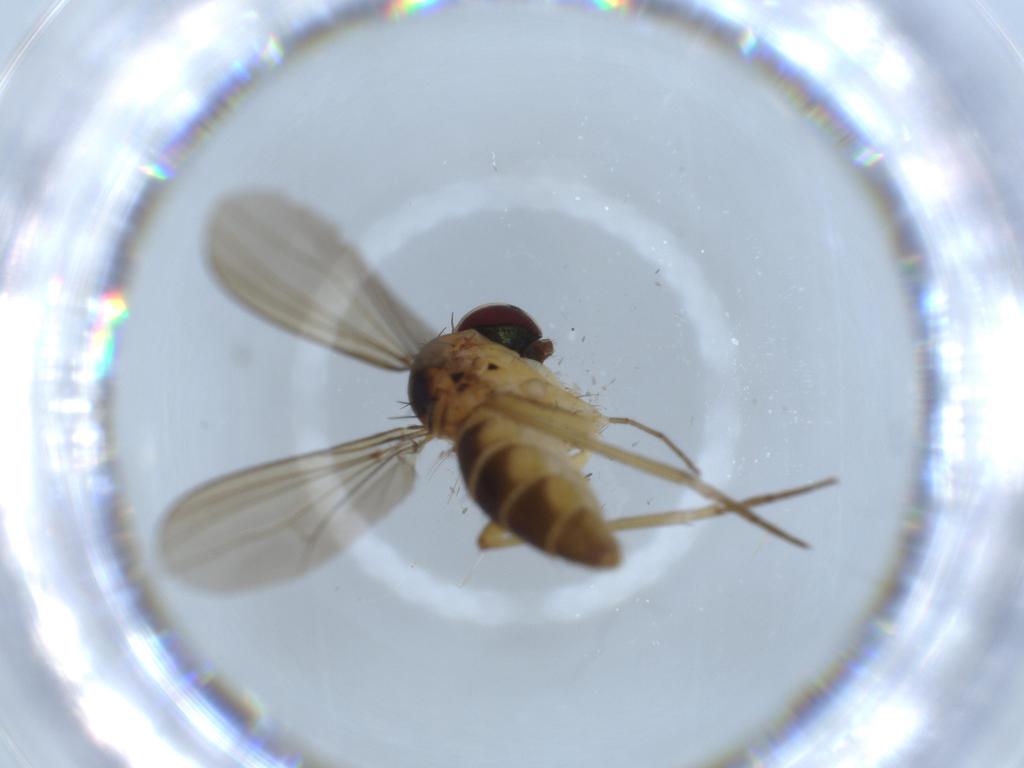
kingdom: Animalia
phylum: Arthropoda
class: Insecta
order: Diptera
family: Dolichopodidae
